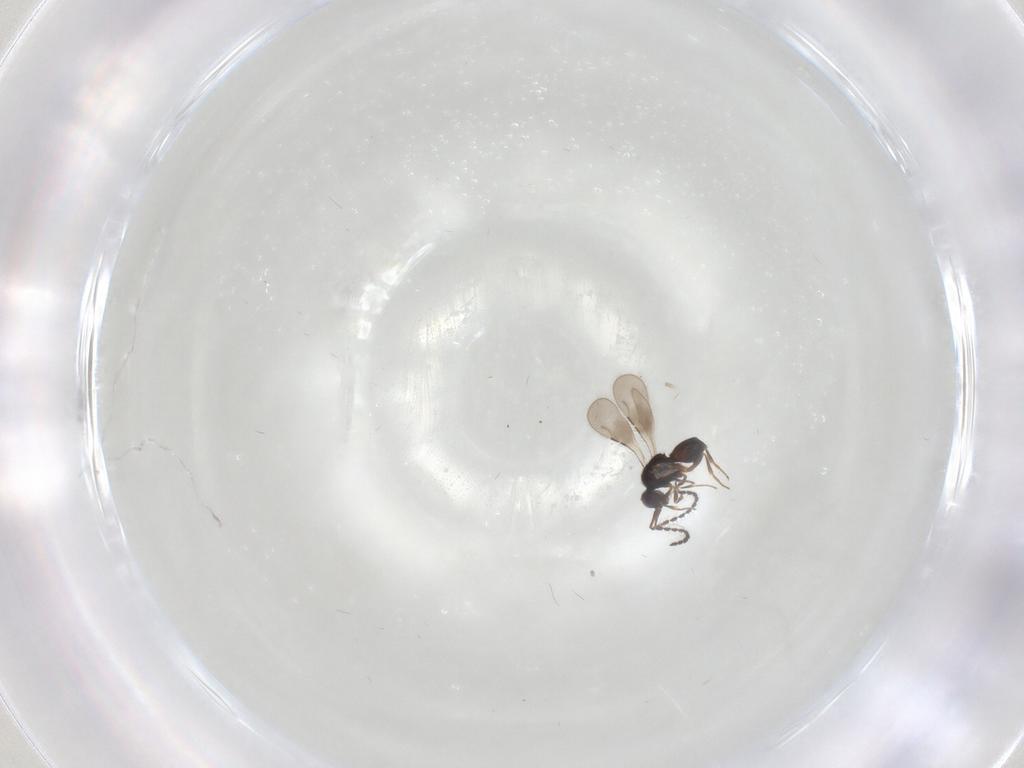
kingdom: Animalia
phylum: Arthropoda
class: Insecta
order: Hymenoptera
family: Ceraphronidae
